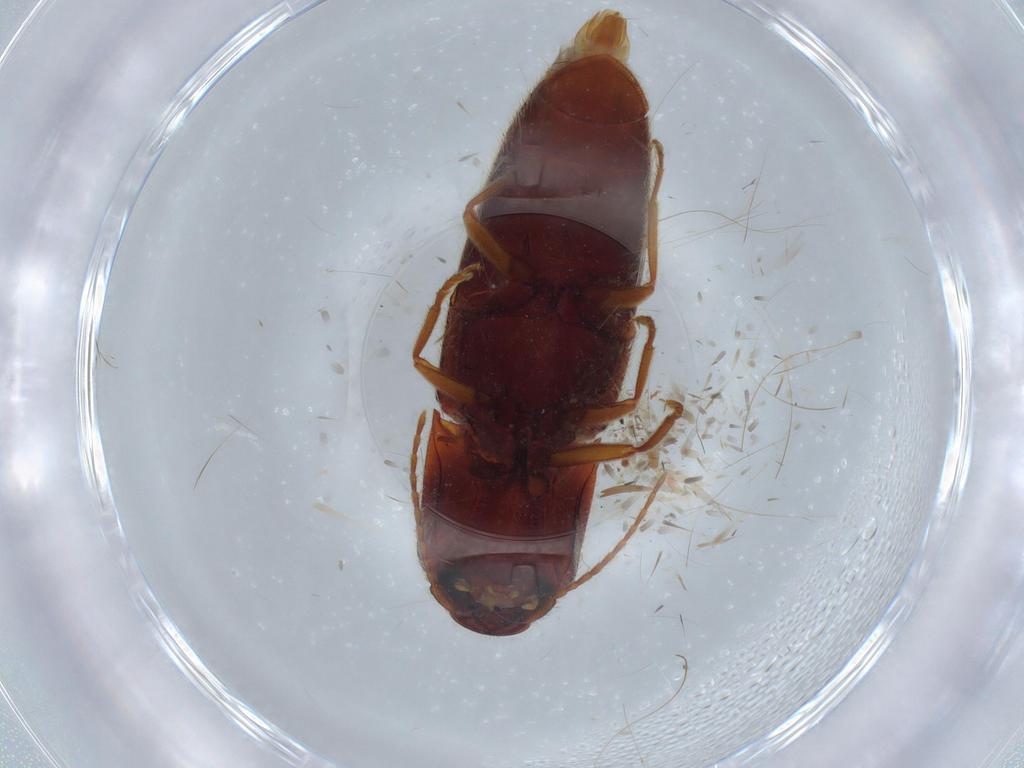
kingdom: Animalia
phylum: Arthropoda
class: Insecta
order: Coleoptera
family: Elateridae
